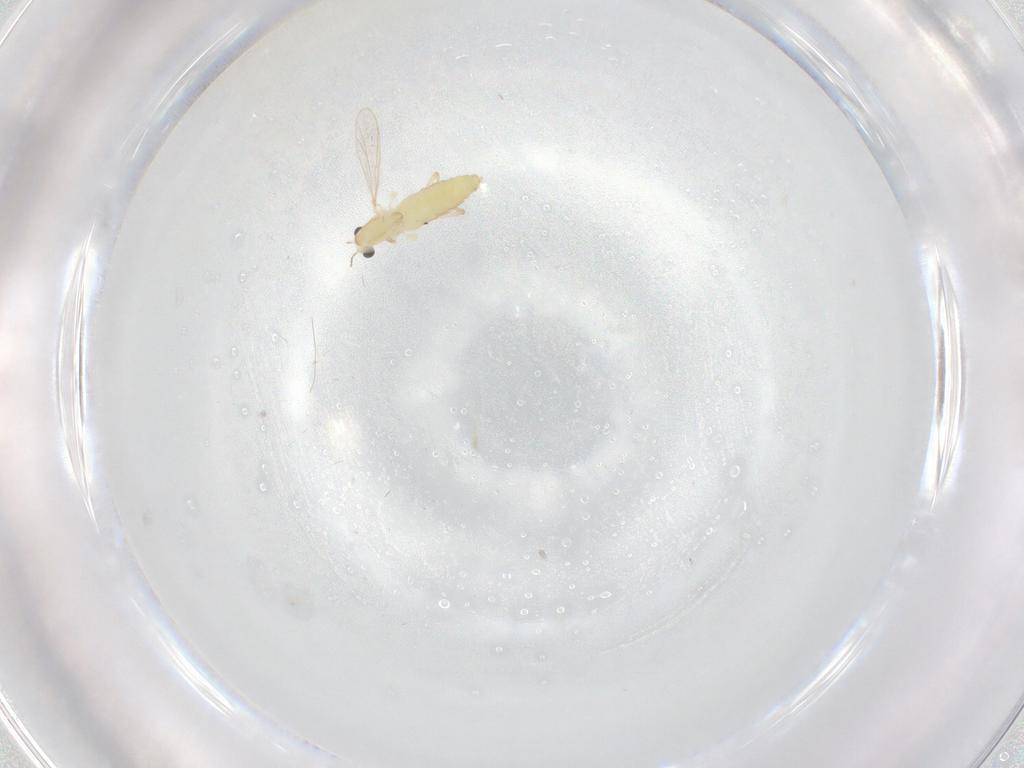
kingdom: Animalia
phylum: Arthropoda
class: Insecta
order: Diptera
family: Chironomidae
